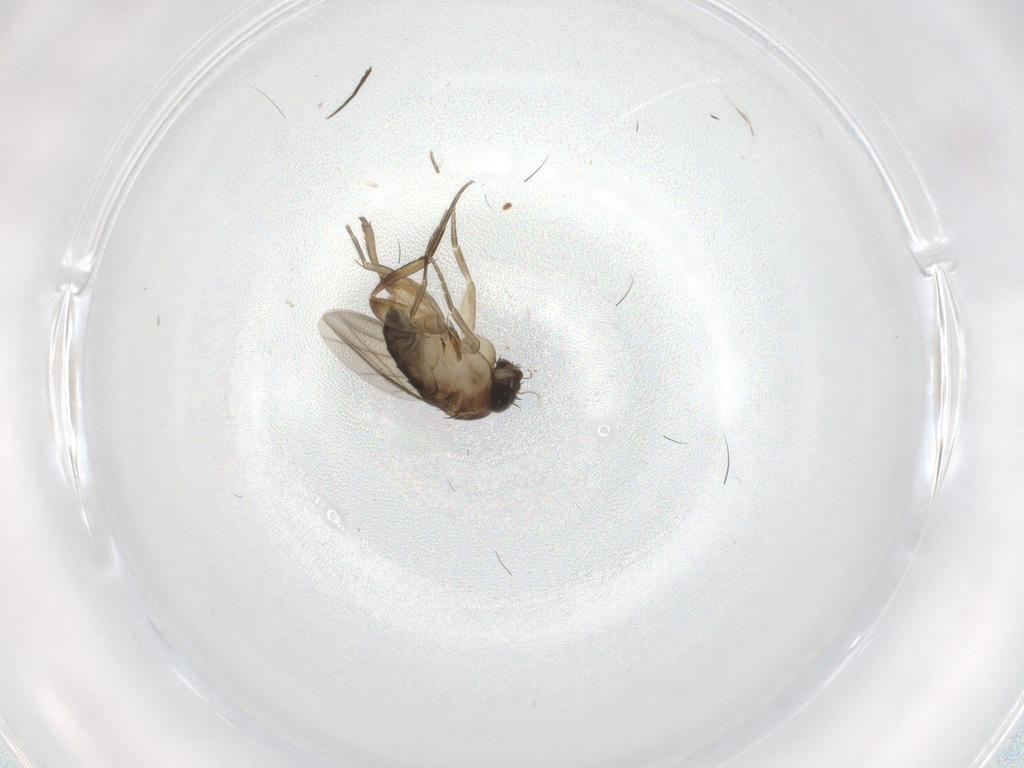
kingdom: Animalia
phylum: Arthropoda
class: Insecta
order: Diptera
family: Phoridae
